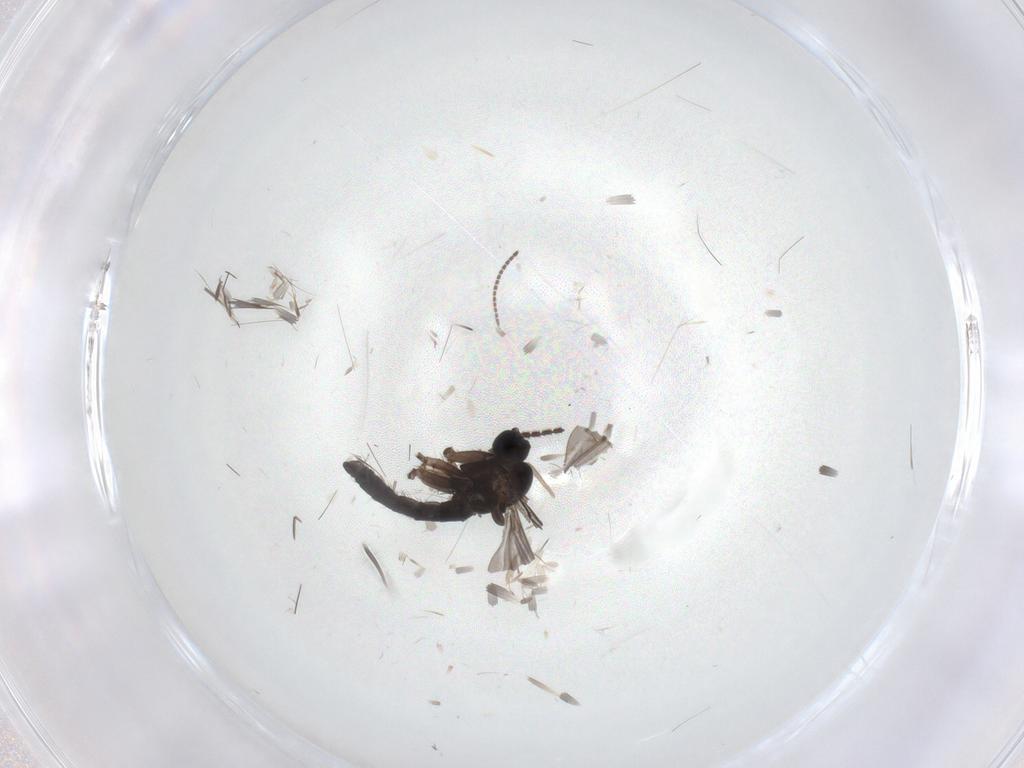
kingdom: Animalia
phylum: Arthropoda
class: Insecta
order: Diptera
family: Sciaridae
